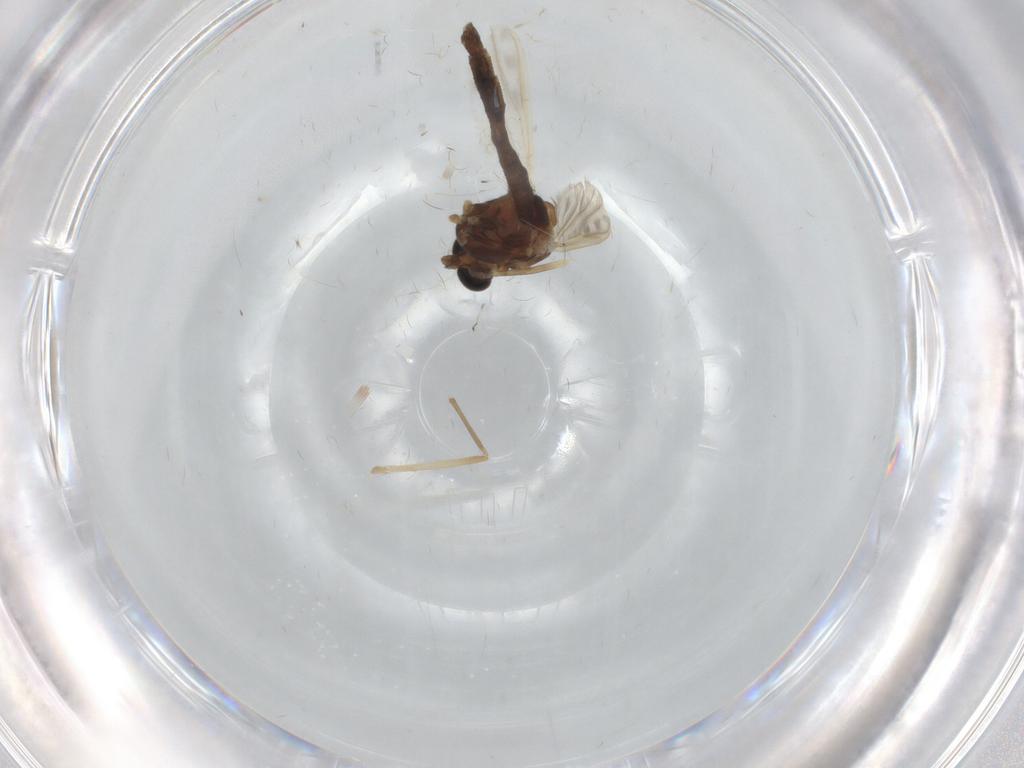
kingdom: Animalia
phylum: Arthropoda
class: Insecta
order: Diptera
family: Chironomidae
